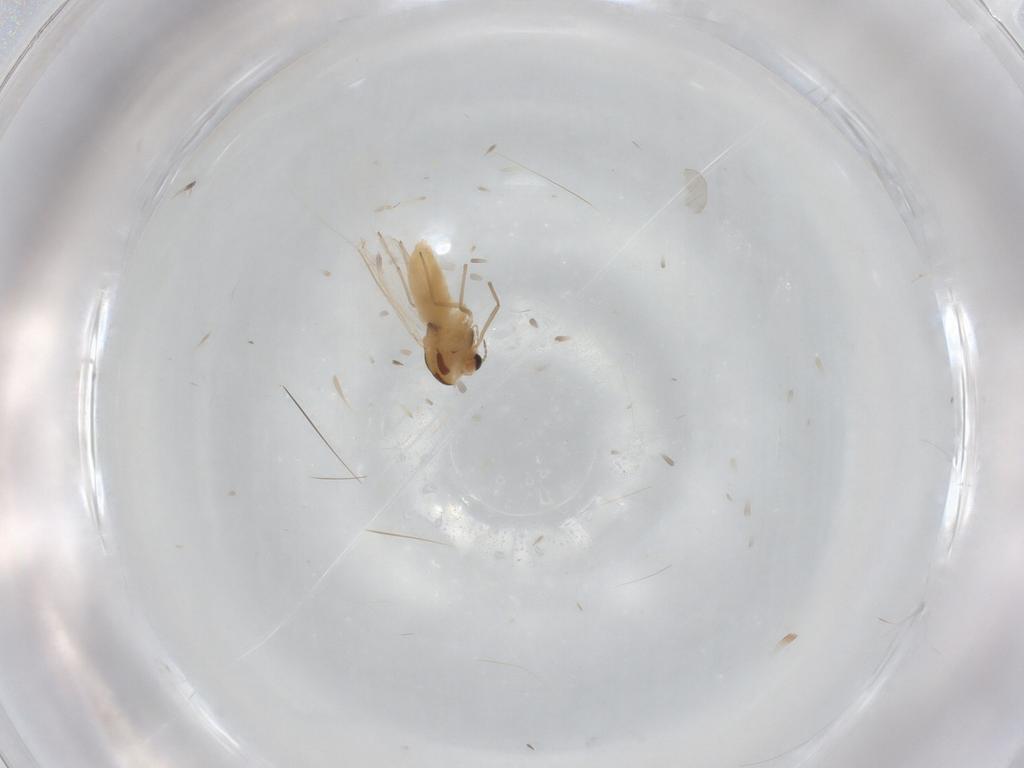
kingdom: Animalia
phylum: Arthropoda
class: Insecta
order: Diptera
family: Chironomidae
